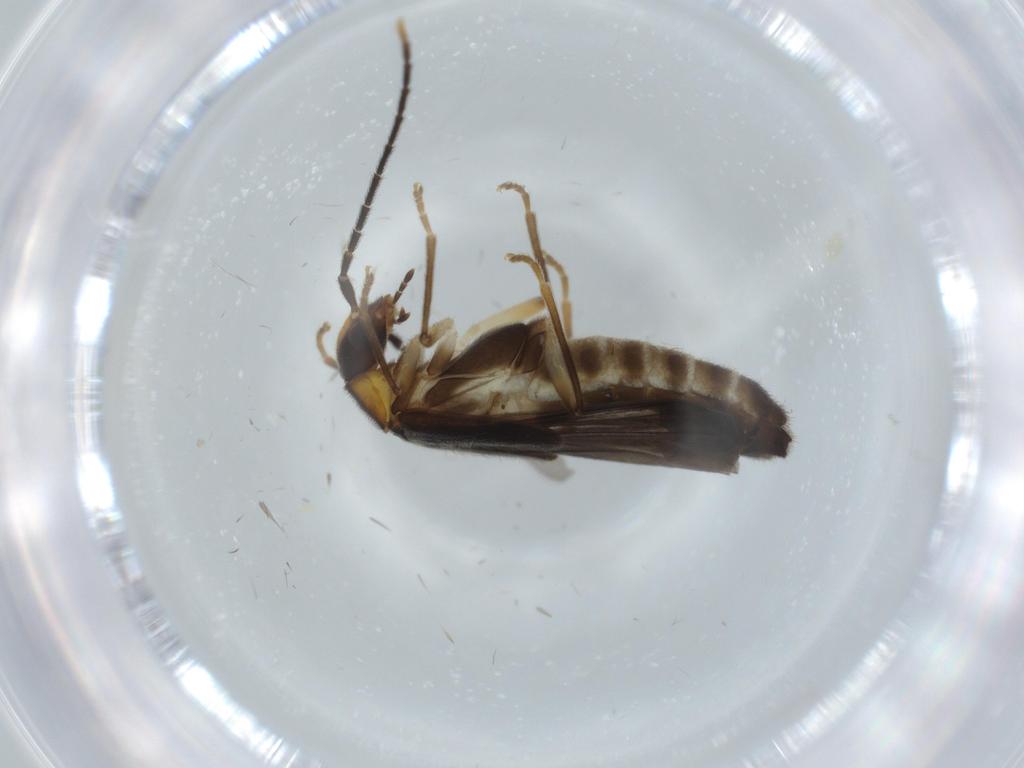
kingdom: Animalia
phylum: Arthropoda
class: Insecta
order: Coleoptera
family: Cantharidae
